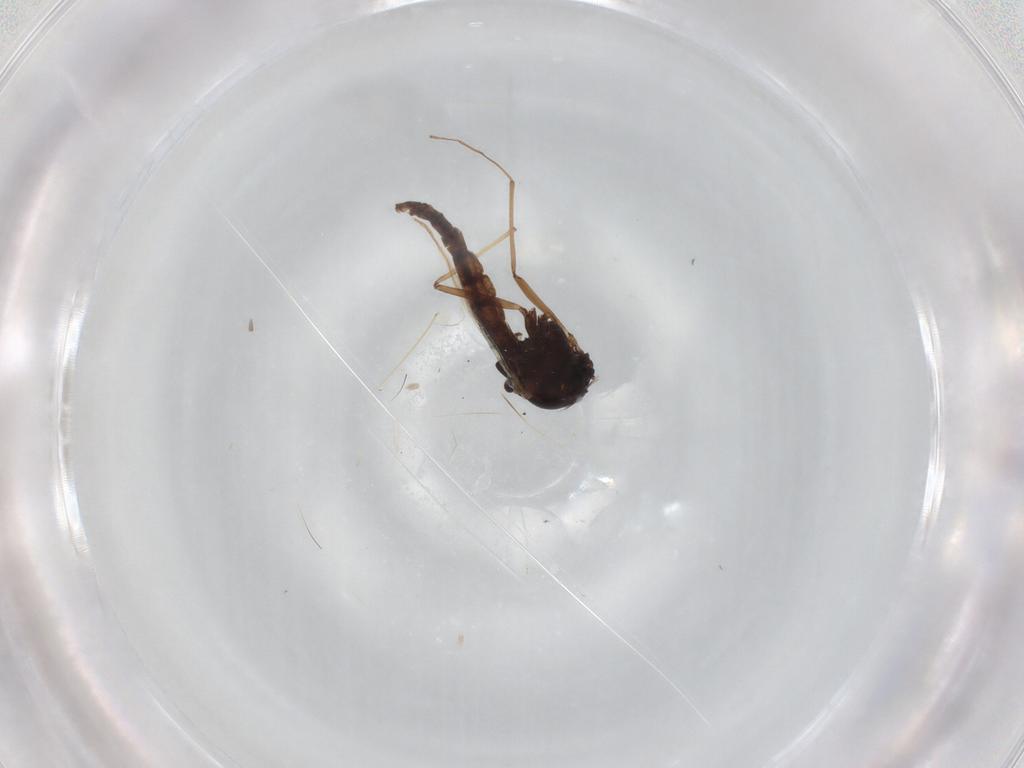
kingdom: Animalia
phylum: Arthropoda
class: Insecta
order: Diptera
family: Chironomidae
